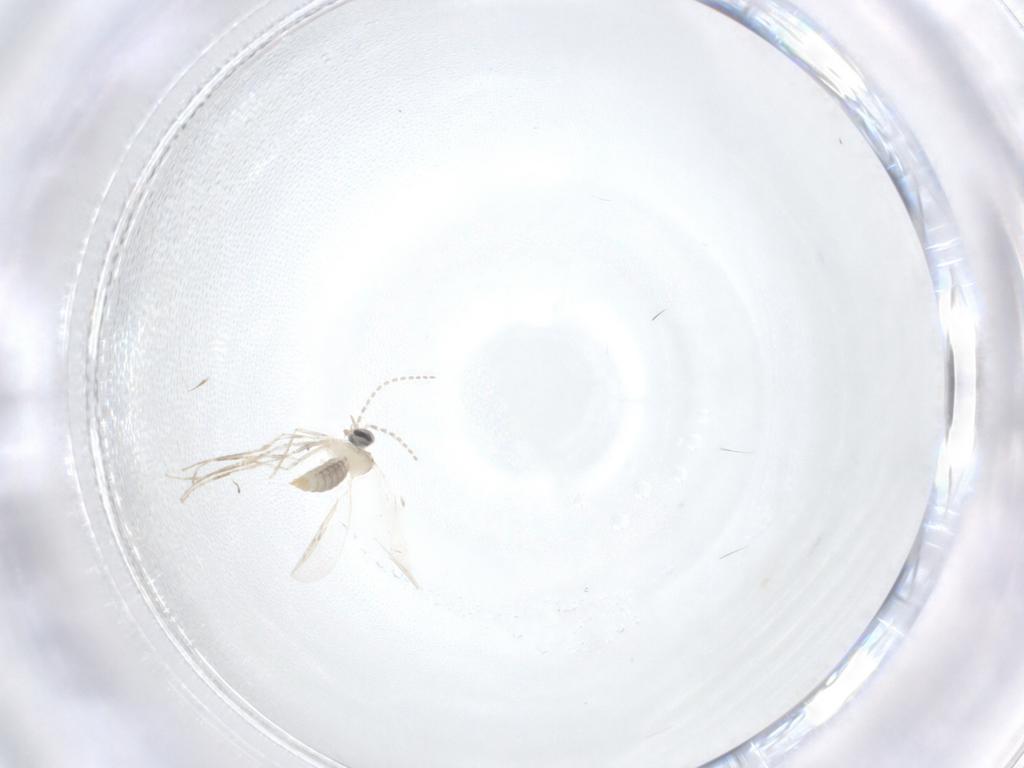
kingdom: Animalia
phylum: Arthropoda
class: Insecta
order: Diptera
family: Cecidomyiidae
